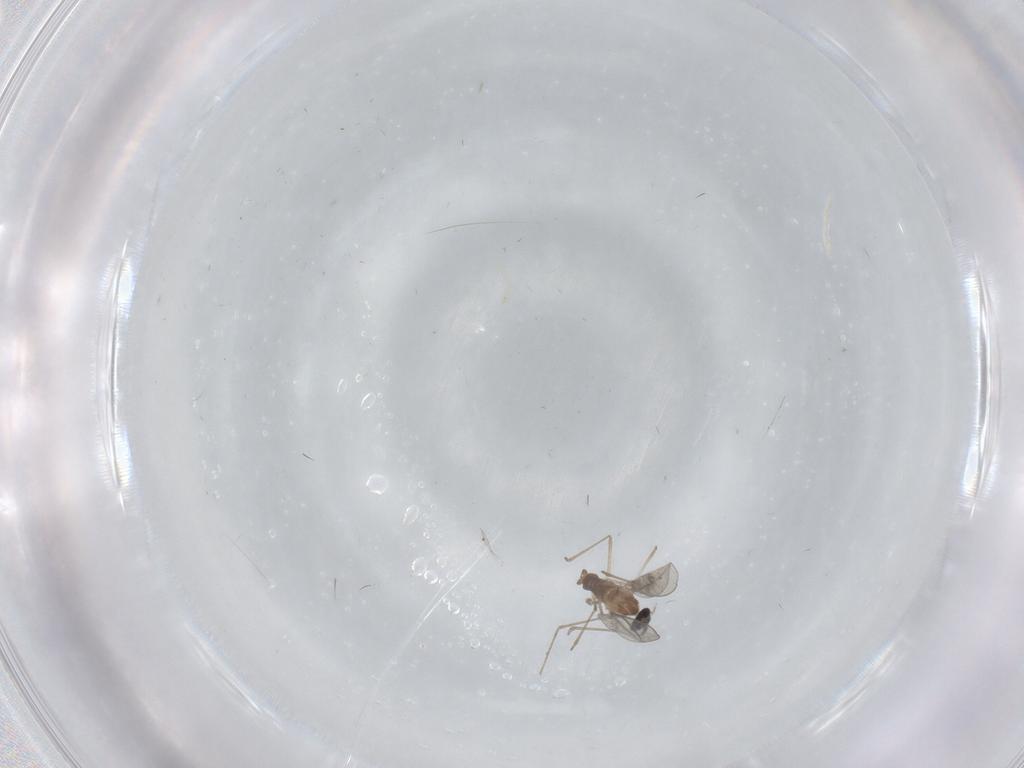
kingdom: Animalia
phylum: Arthropoda
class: Insecta
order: Diptera
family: Cecidomyiidae
